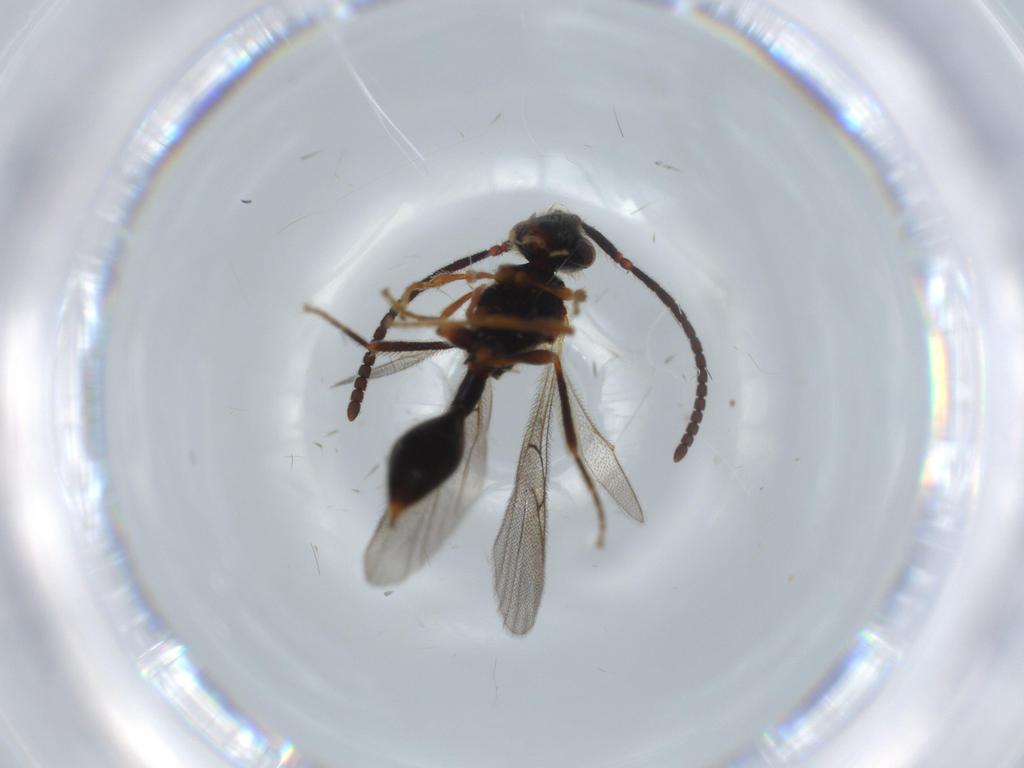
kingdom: Animalia
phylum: Arthropoda
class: Insecta
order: Hymenoptera
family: Diapriidae
